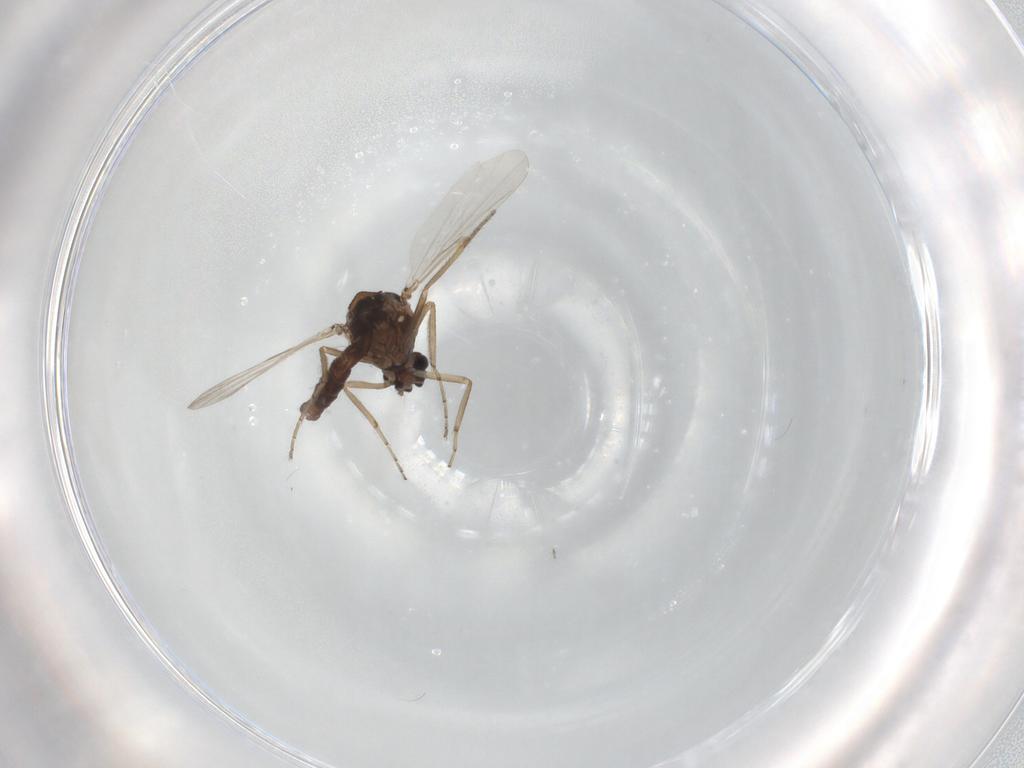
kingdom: Animalia
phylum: Arthropoda
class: Insecta
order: Diptera
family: Ceratopogonidae
